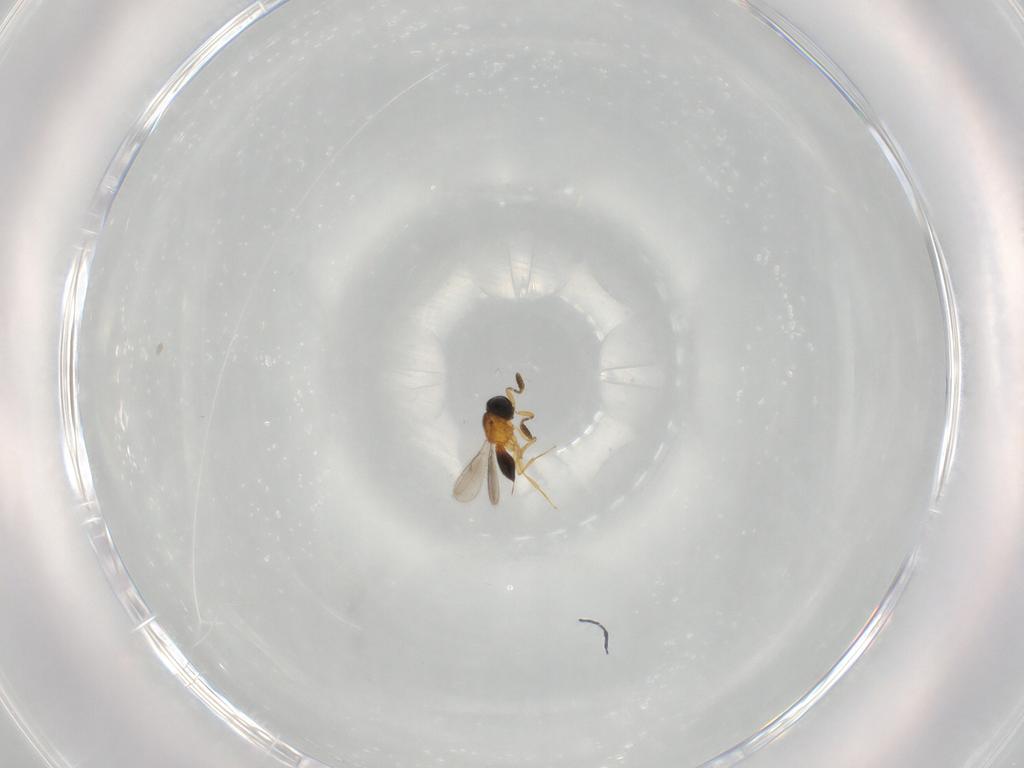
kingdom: Animalia
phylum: Arthropoda
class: Insecta
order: Hymenoptera
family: Scelionidae
